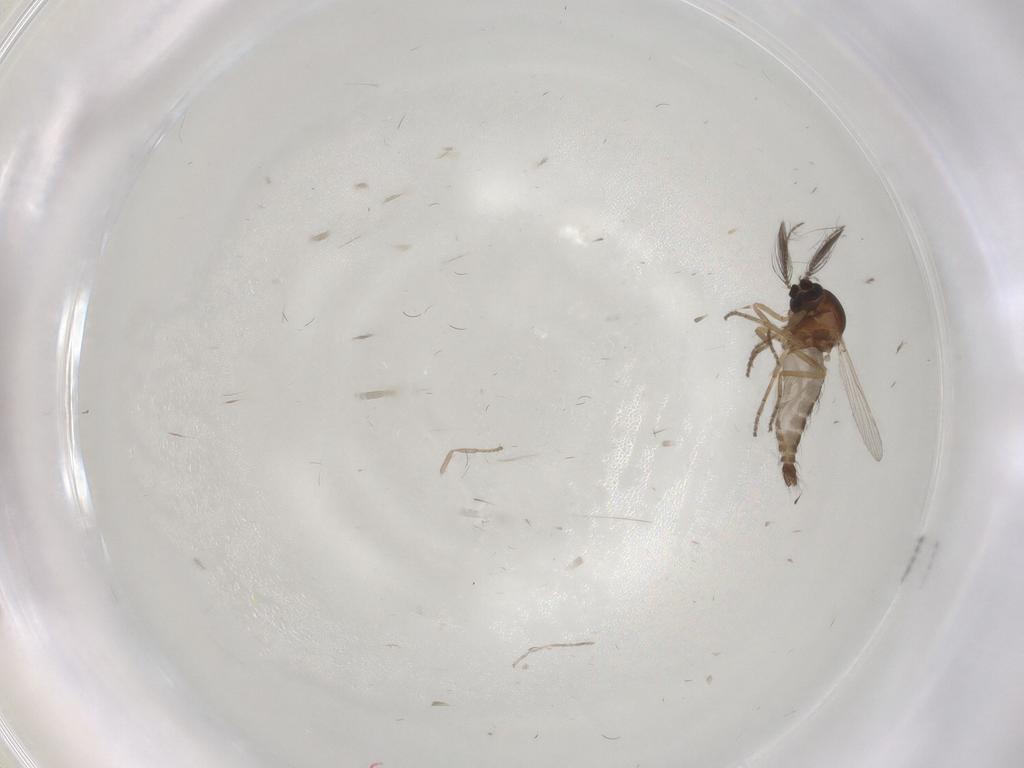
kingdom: Animalia
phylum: Arthropoda
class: Insecta
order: Diptera
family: Sciaridae
